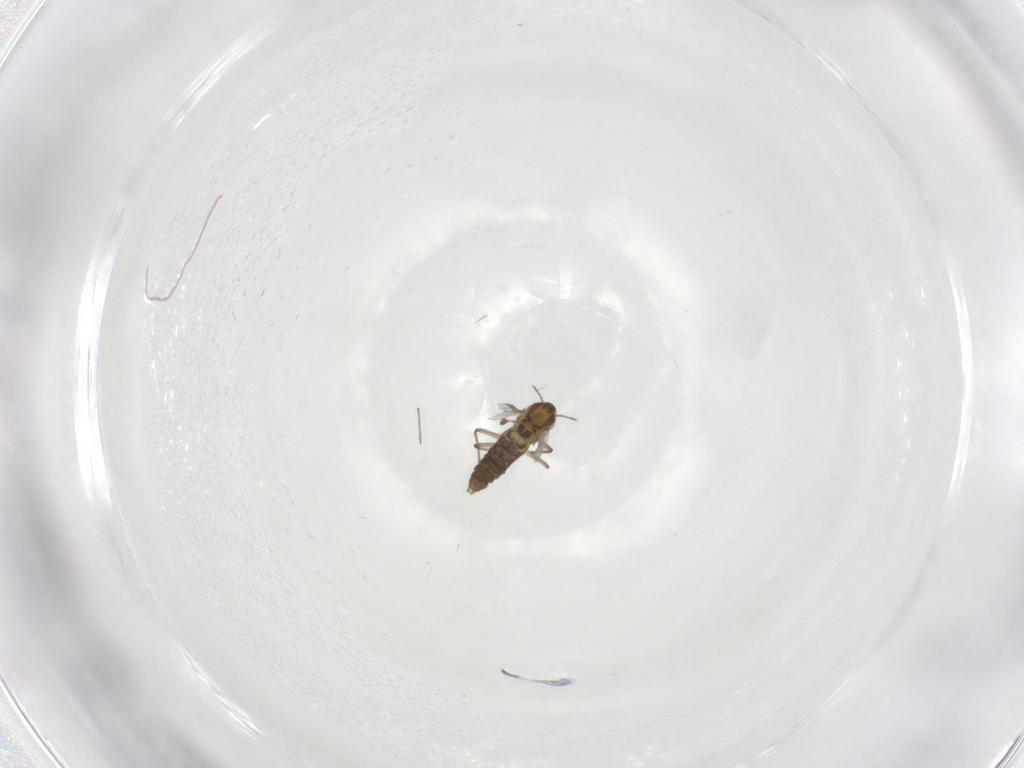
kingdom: Animalia
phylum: Arthropoda
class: Insecta
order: Diptera
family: Chironomidae
